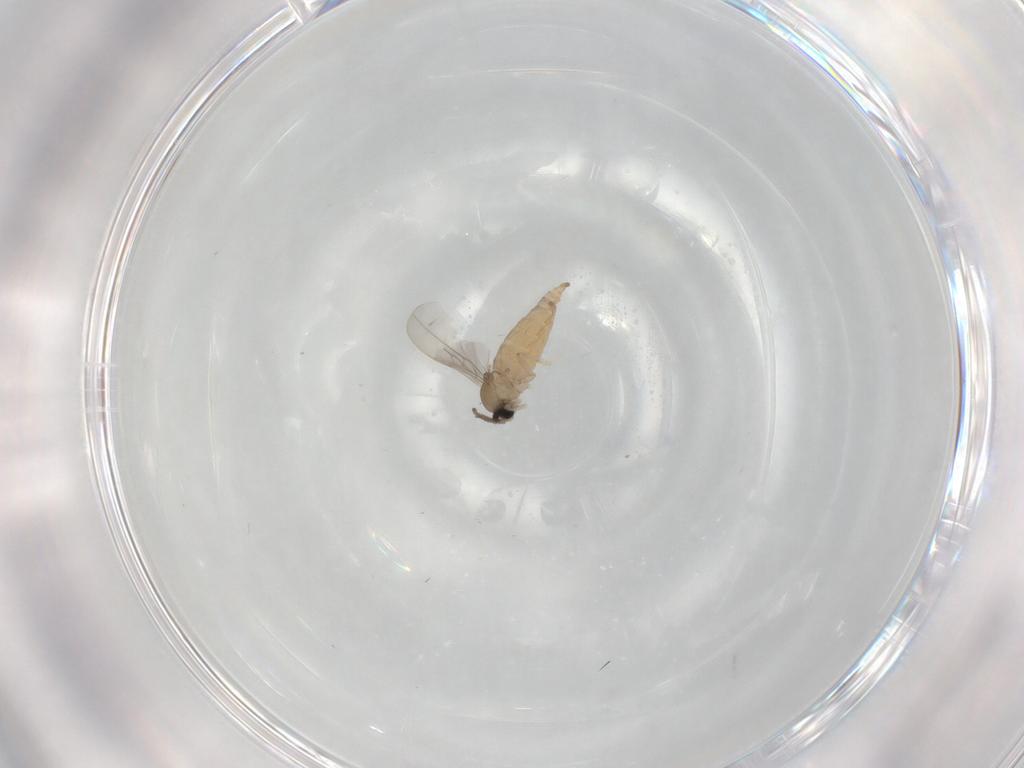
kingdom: Animalia
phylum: Arthropoda
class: Insecta
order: Diptera
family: Cecidomyiidae
